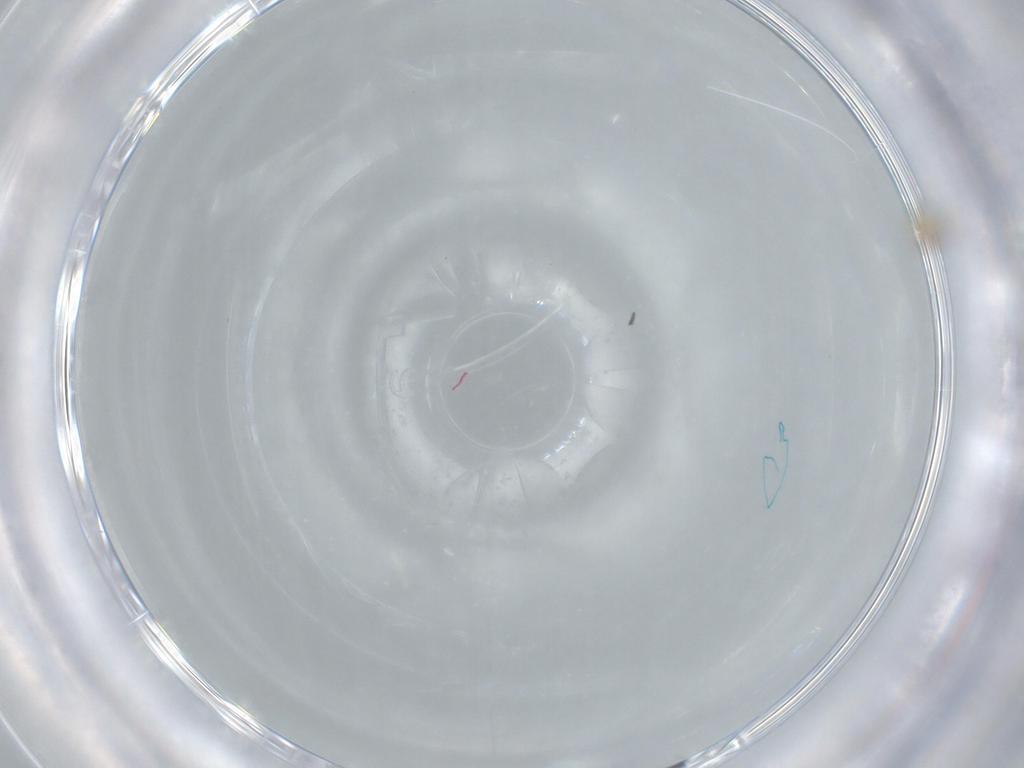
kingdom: Animalia
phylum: Arthropoda
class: Insecta
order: Hymenoptera
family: Trichogrammatidae
